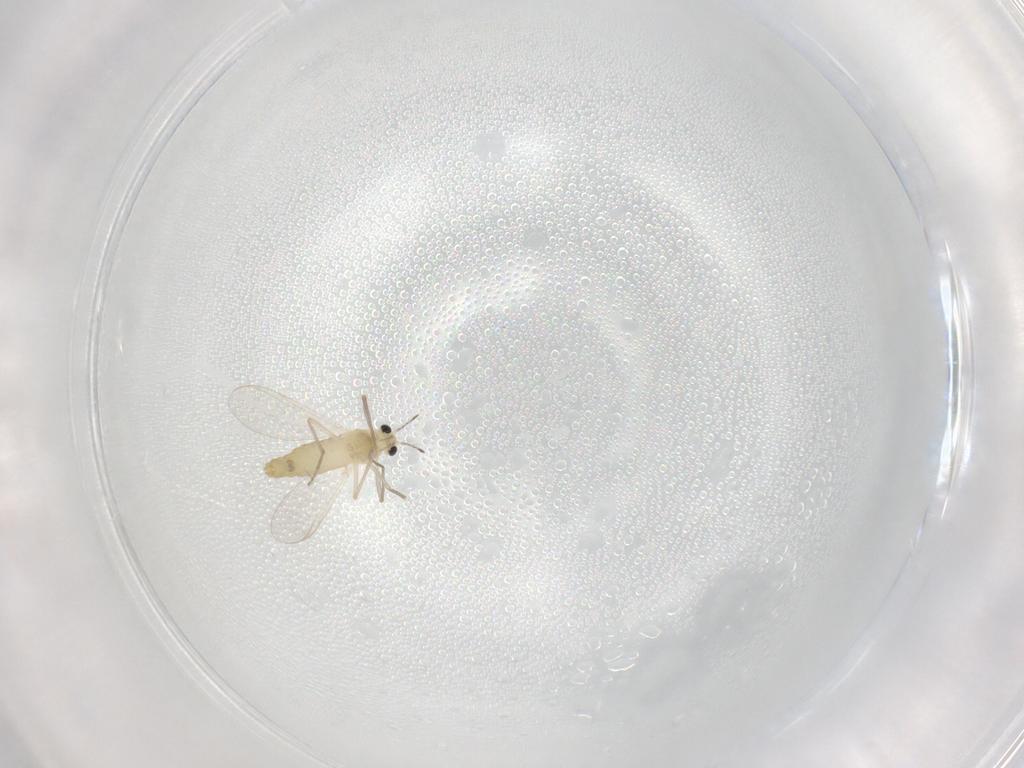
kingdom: Animalia
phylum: Arthropoda
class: Insecta
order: Diptera
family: Chironomidae
